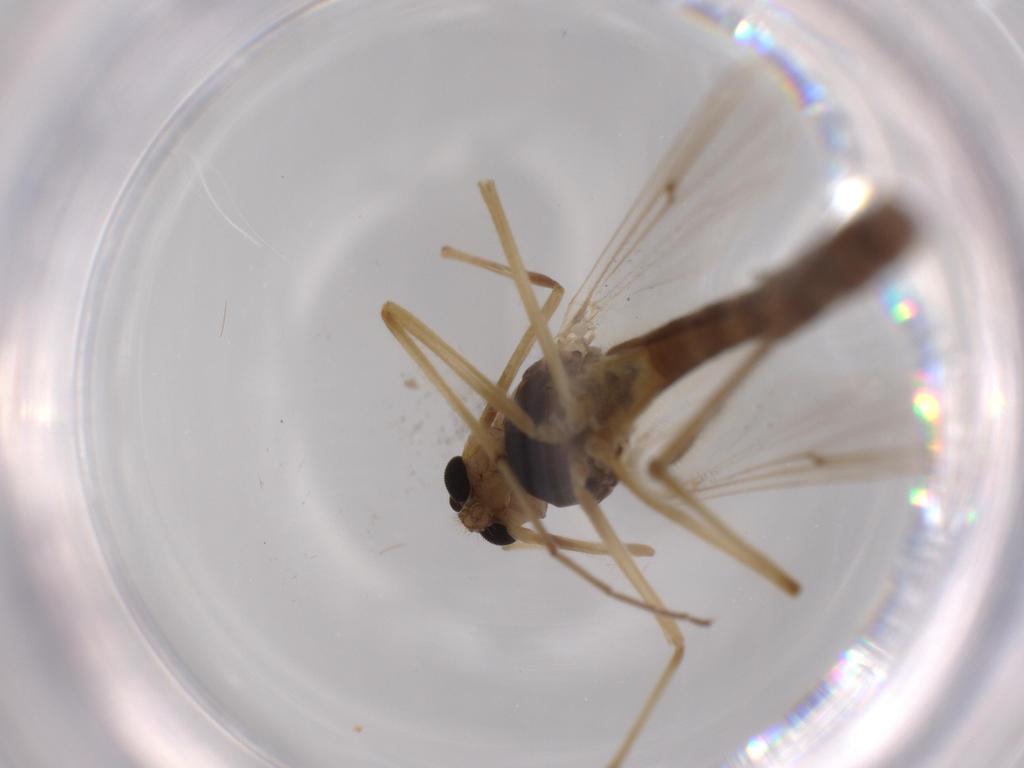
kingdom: Animalia
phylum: Arthropoda
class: Insecta
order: Diptera
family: Chironomidae
